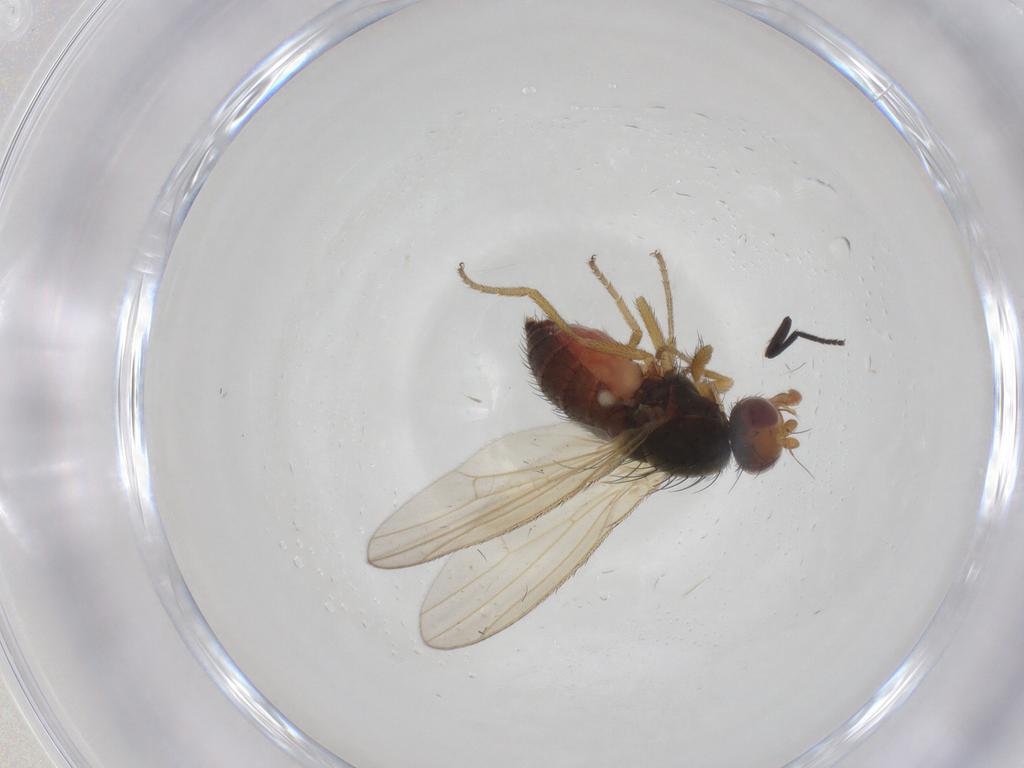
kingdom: Animalia
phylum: Arthropoda
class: Insecta
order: Diptera
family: Heleomyzidae
